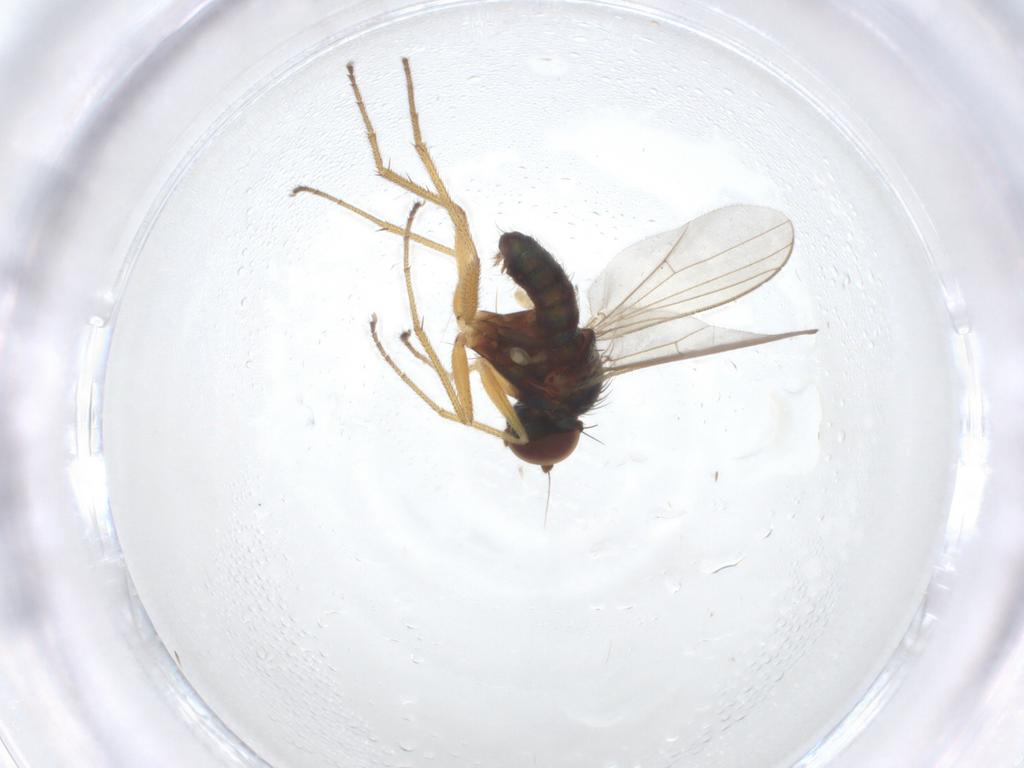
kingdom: Animalia
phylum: Arthropoda
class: Insecta
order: Diptera
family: Dolichopodidae
